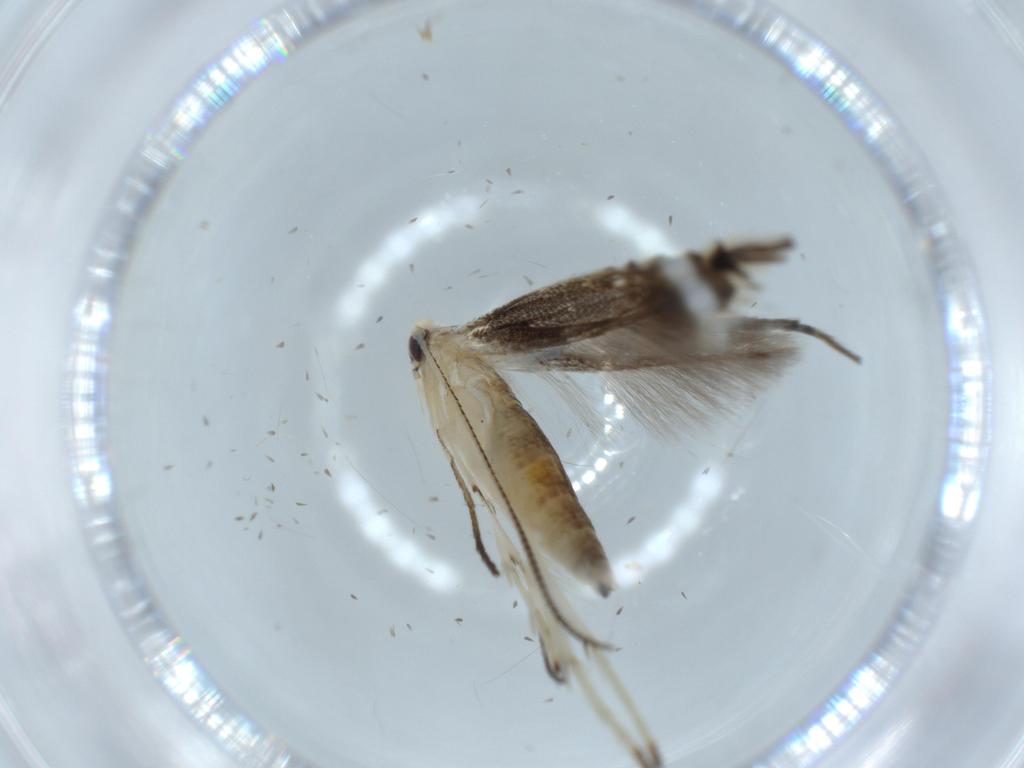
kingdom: Animalia
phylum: Arthropoda
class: Insecta
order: Lepidoptera
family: Gracillariidae
